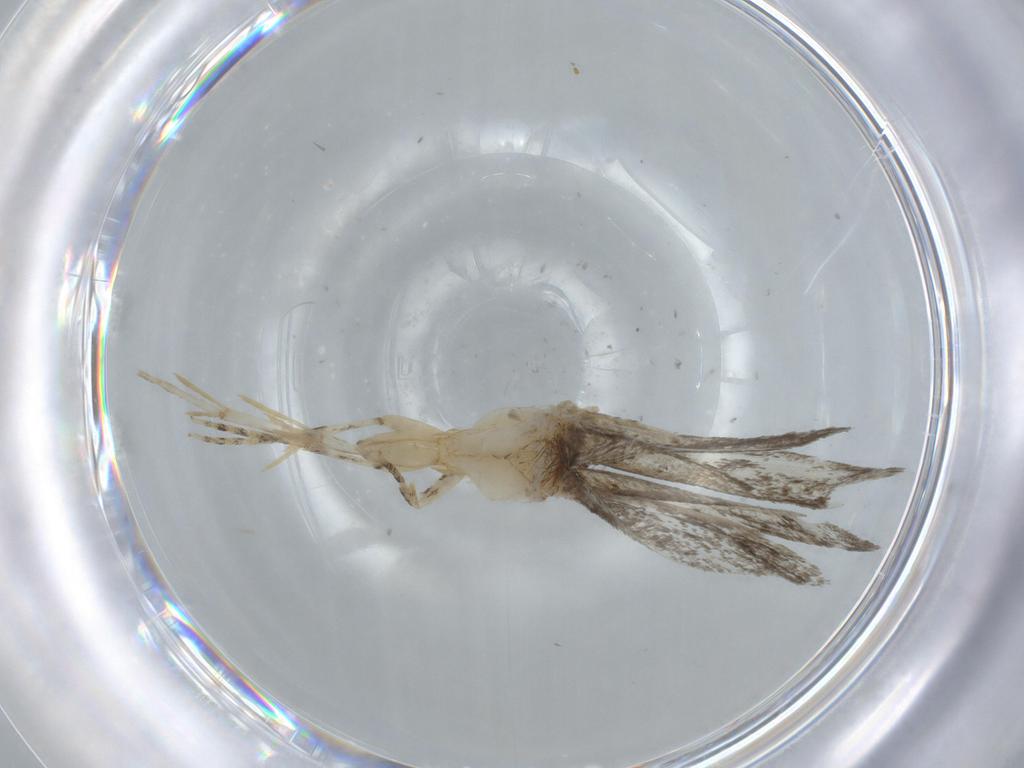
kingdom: Animalia
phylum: Arthropoda
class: Insecta
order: Lepidoptera
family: Tineidae
